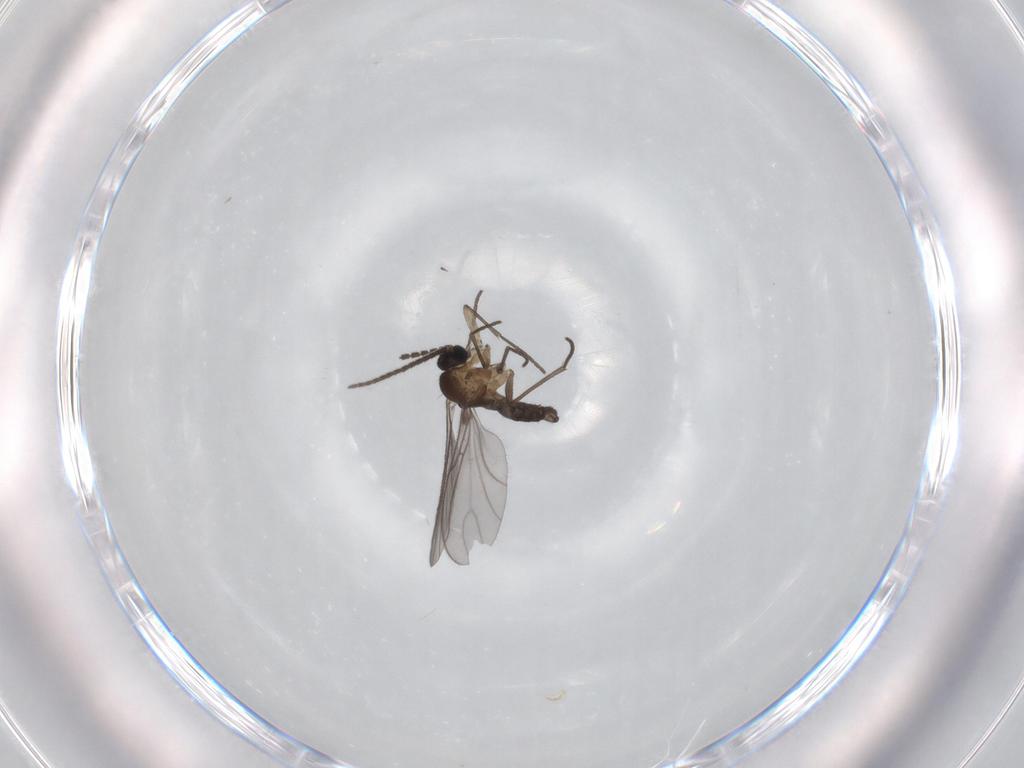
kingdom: Animalia
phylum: Arthropoda
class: Insecta
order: Diptera
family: Sciaridae
